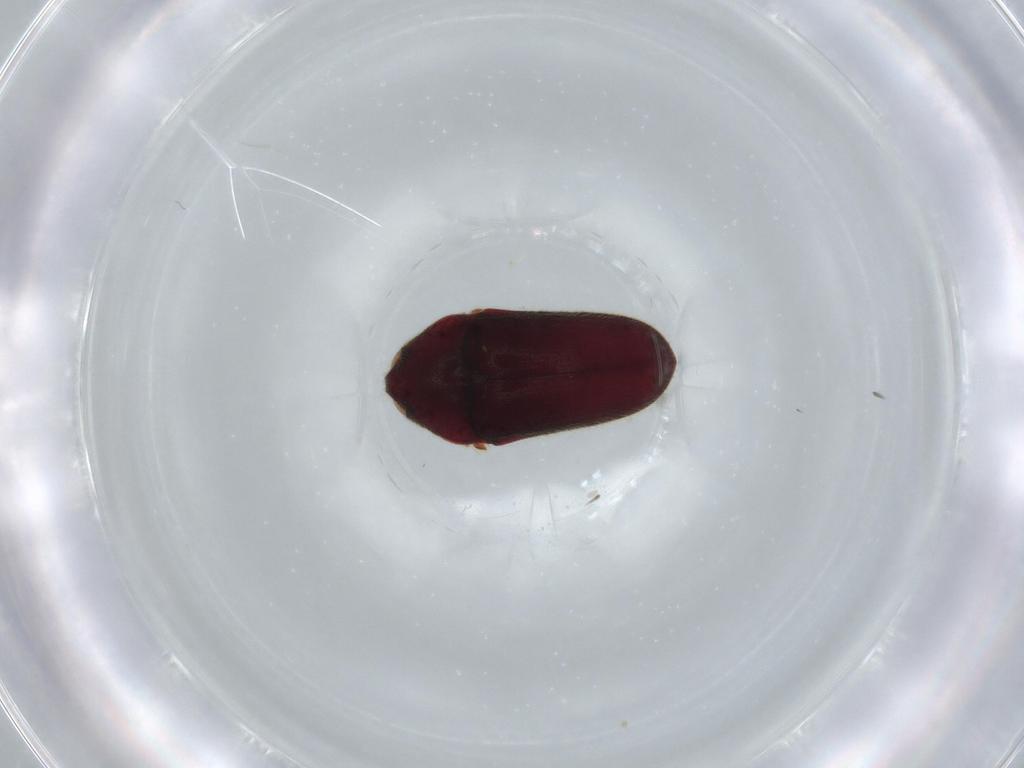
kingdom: Animalia
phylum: Arthropoda
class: Insecta
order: Coleoptera
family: Throscidae
